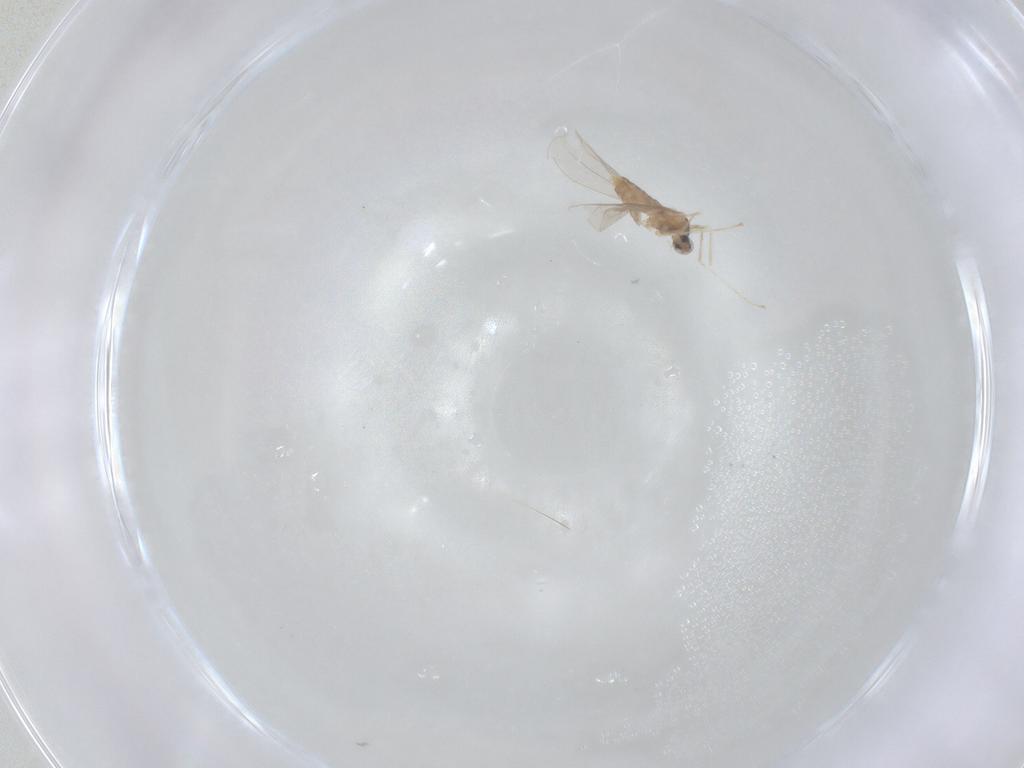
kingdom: Animalia
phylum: Arthropoda
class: Insecta
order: Diptera
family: Cecidomyiidae
